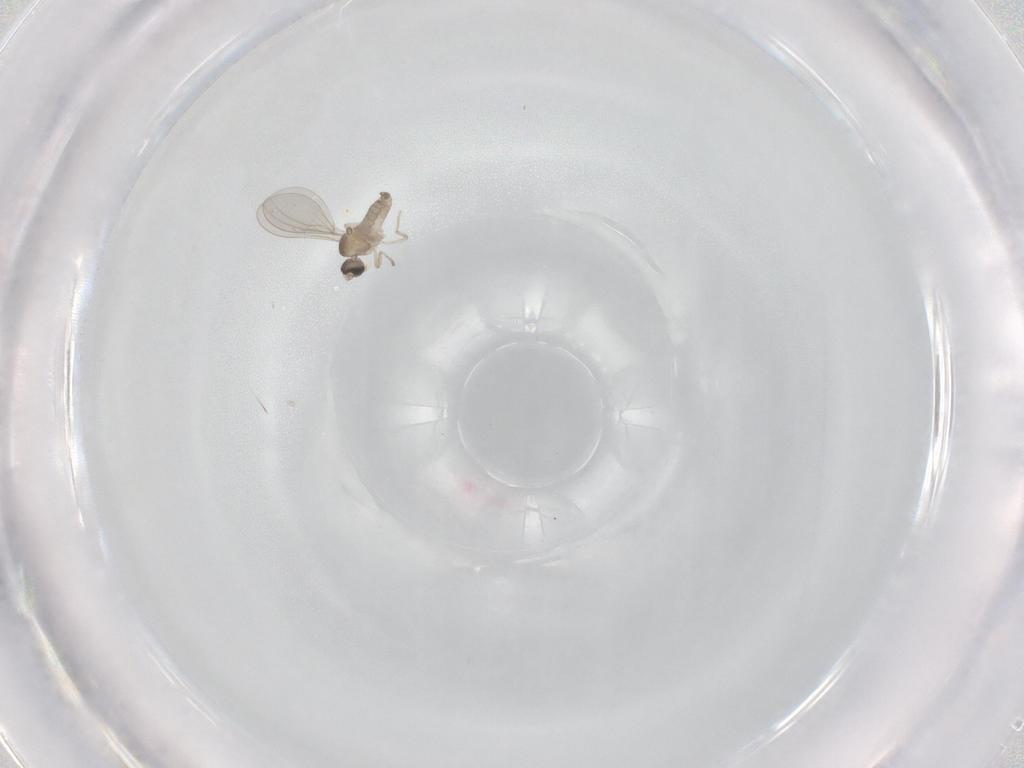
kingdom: Animalia
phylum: Arthropoda
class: Insecta
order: Diptera
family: Cecidomyiidae
